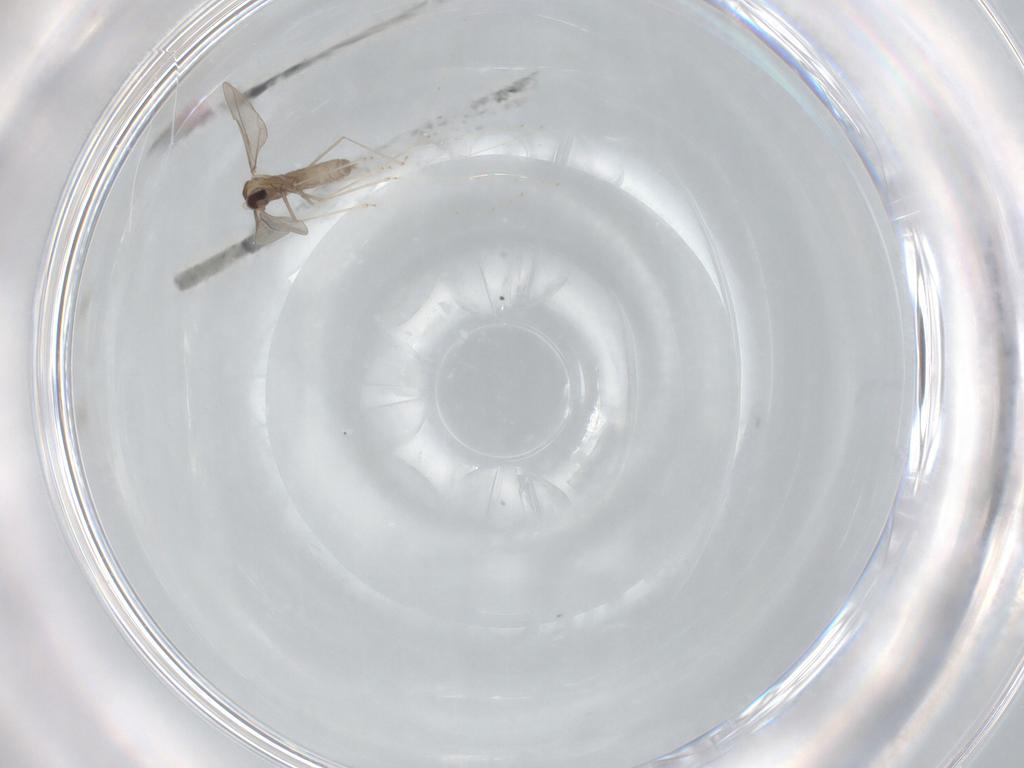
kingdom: Animalia
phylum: Arthropoda
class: Insecta
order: Diptera
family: Cecidomyiidae
